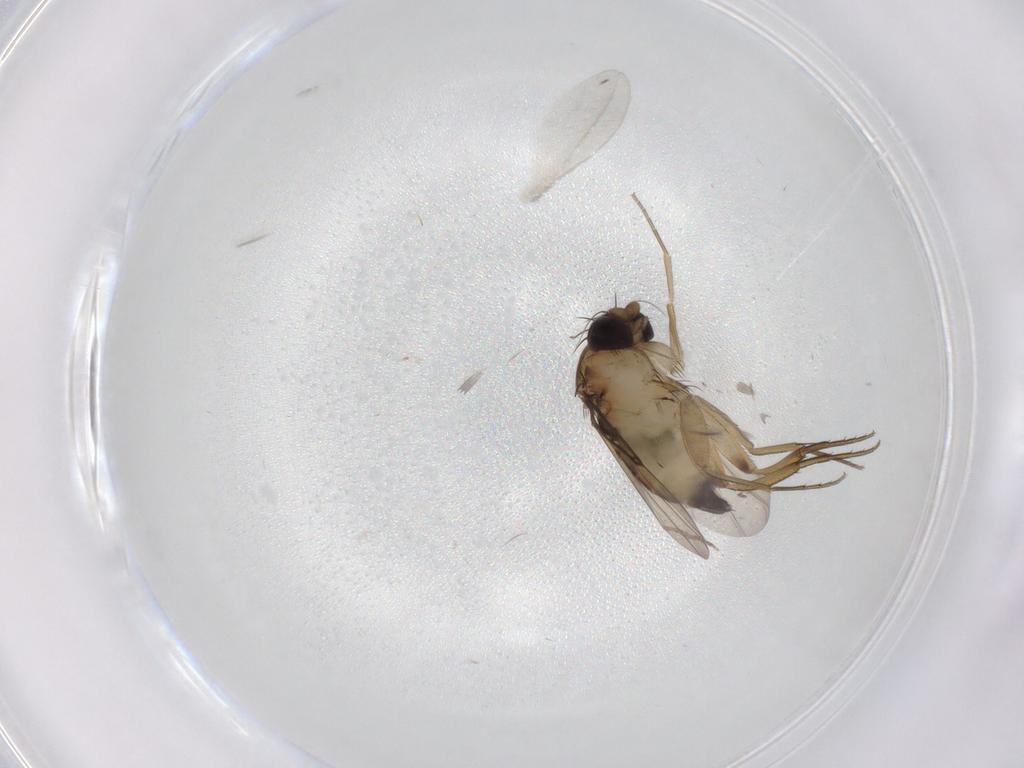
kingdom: Animalia
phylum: Arthropoda
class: Insecta
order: Diptera
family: Phoridae
